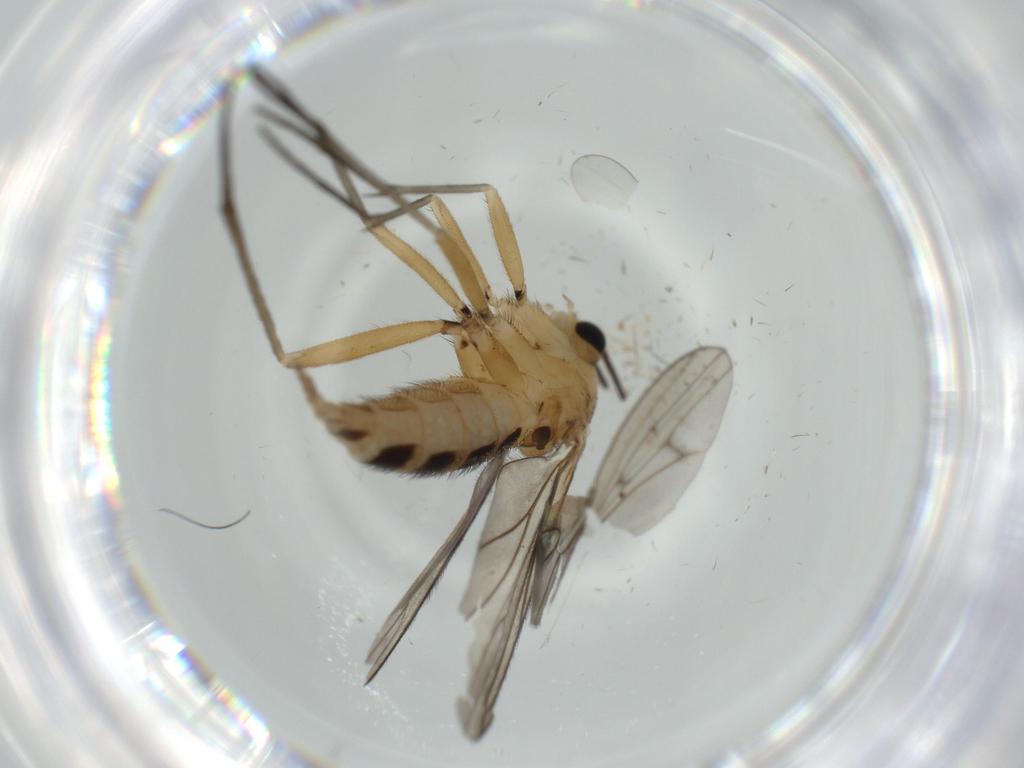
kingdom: Animalia
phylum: Arthropoda
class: Insecta
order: Diptera
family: Sciaridae
